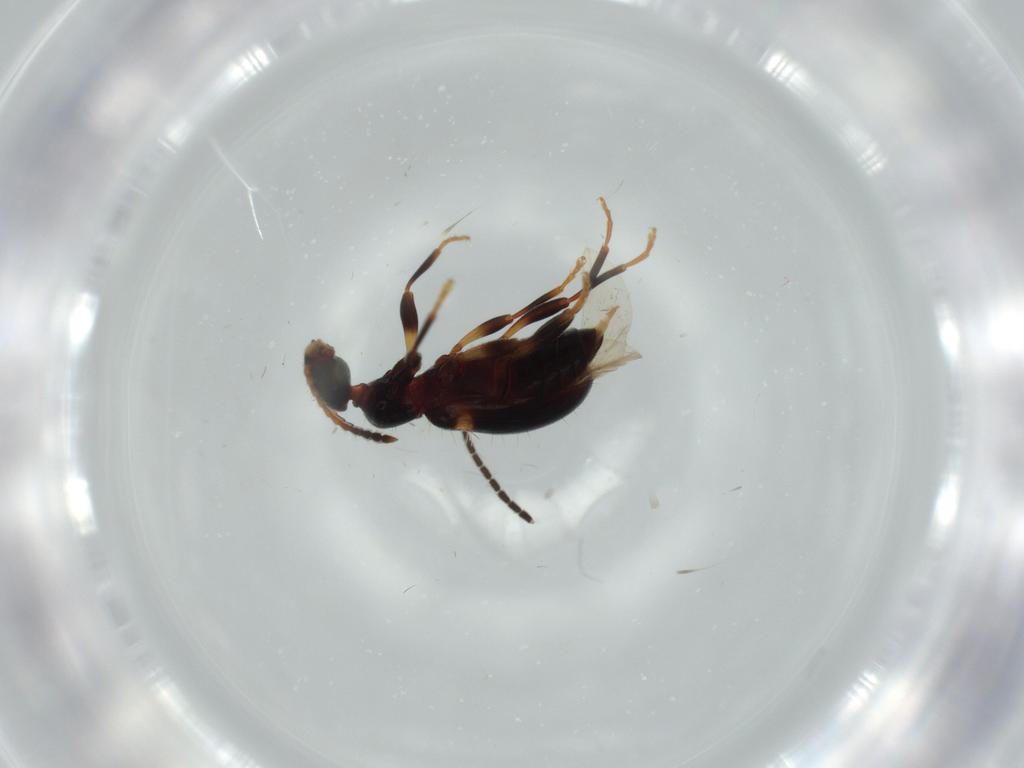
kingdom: Animalia
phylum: Arthropoda
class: Insecta
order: Coleoptera
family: Anthicidae
